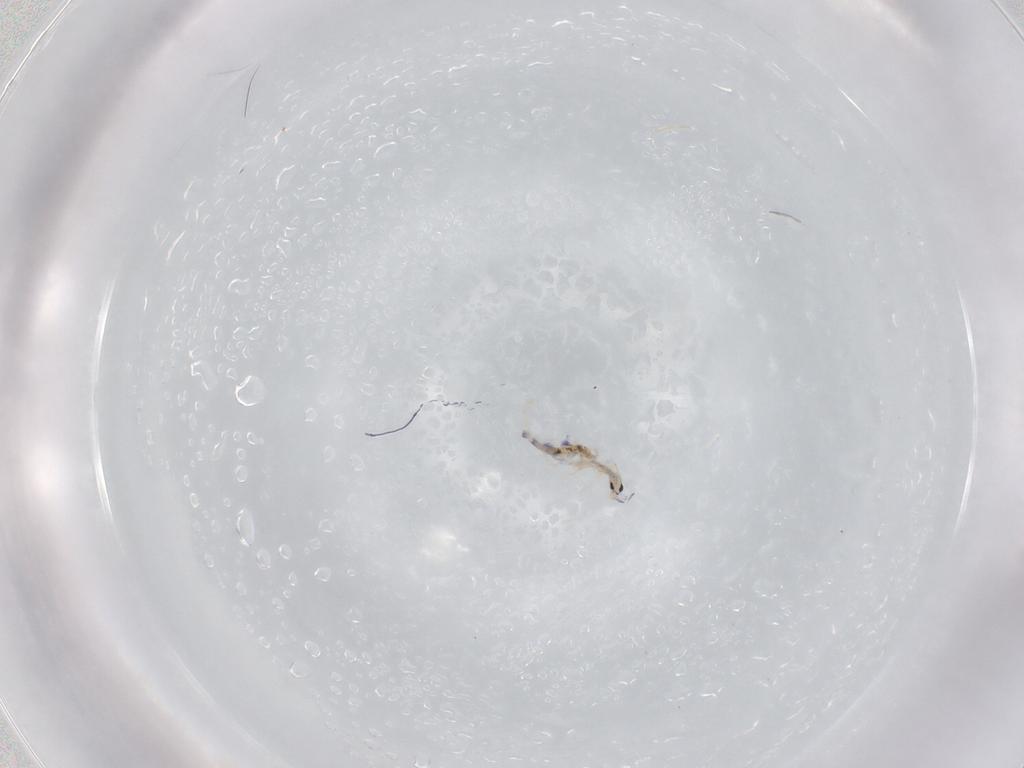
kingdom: Animalia
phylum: Arthropoda
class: Collembola
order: Entomobryomorpha
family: Entomobryidae
